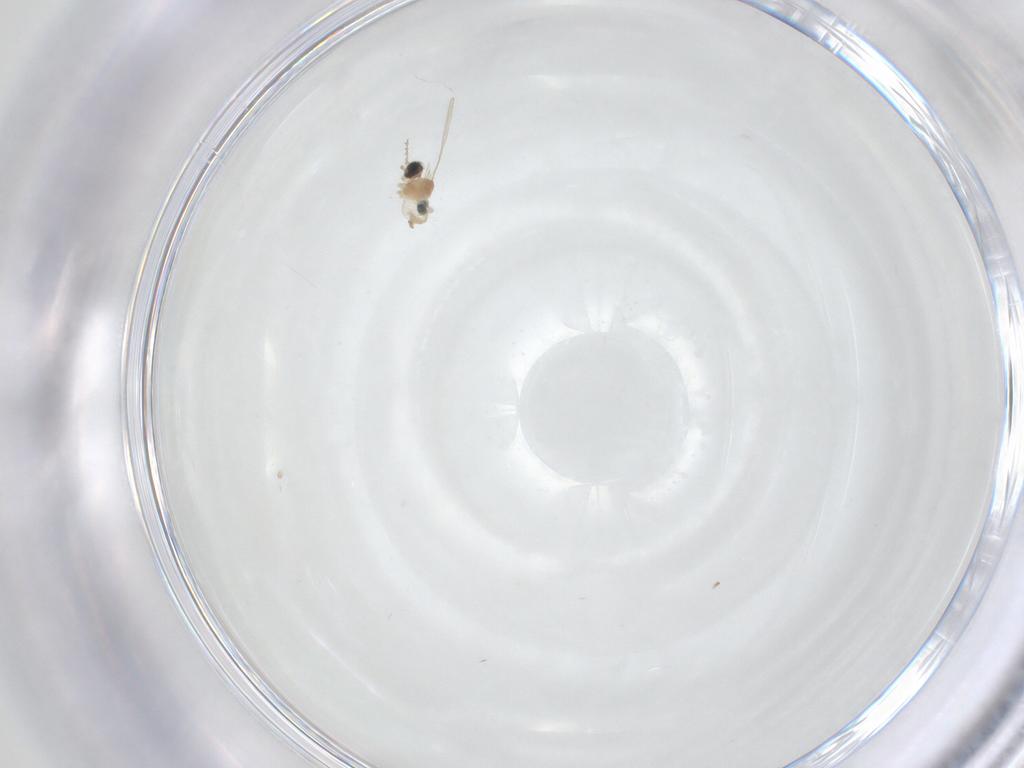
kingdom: Animalia
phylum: Arthropoda
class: Insecta
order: Diptera
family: Chironomidae
